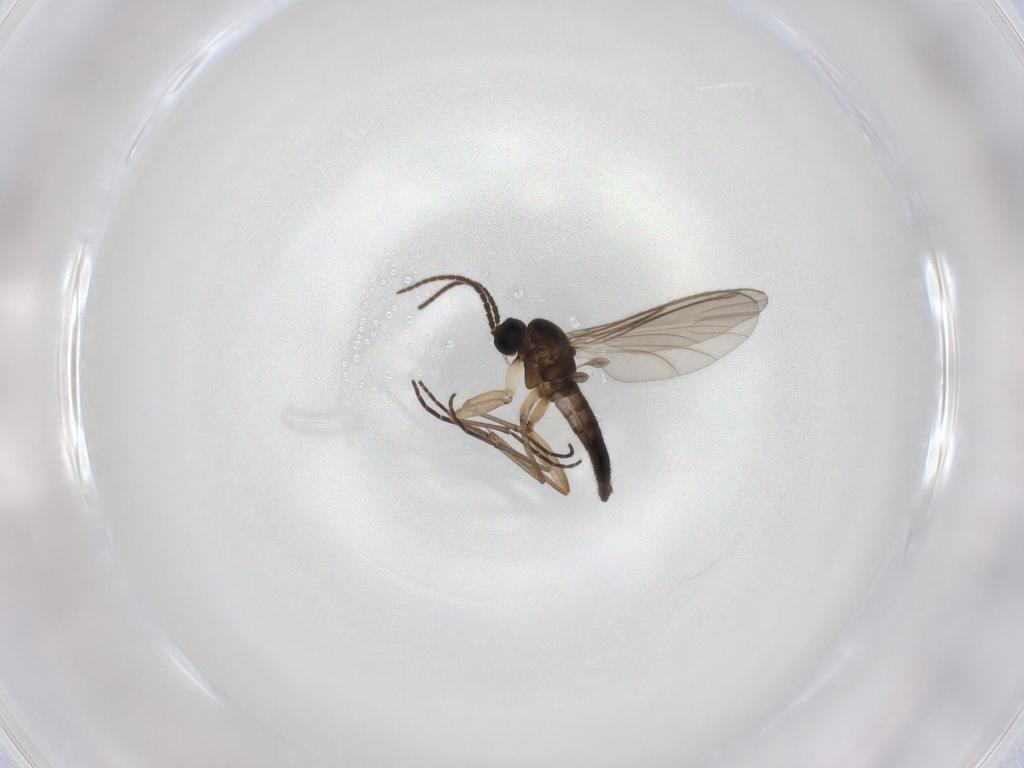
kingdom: Animalia
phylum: Arthropoda
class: Insecta
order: Diptera
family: Sciaridae
